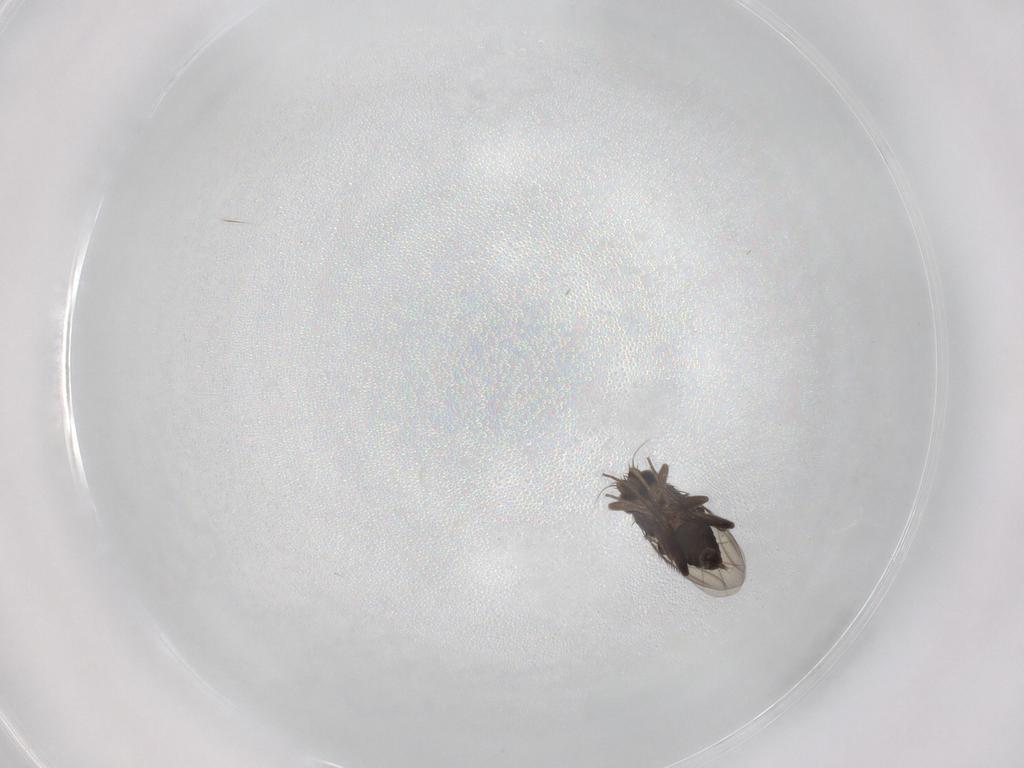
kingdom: Animalia
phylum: Arthropoda
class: Insecta
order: Diptera
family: Phoridae
